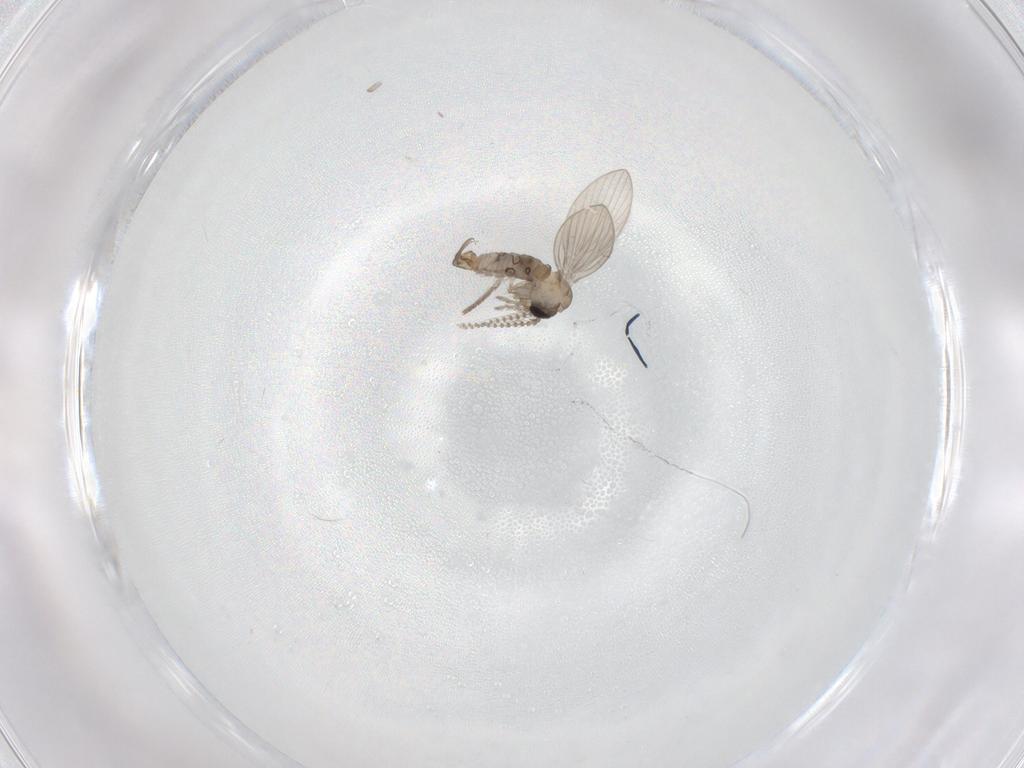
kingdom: Animalia
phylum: Arthropoda
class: Insecta
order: Diptera
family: Psychodidae
